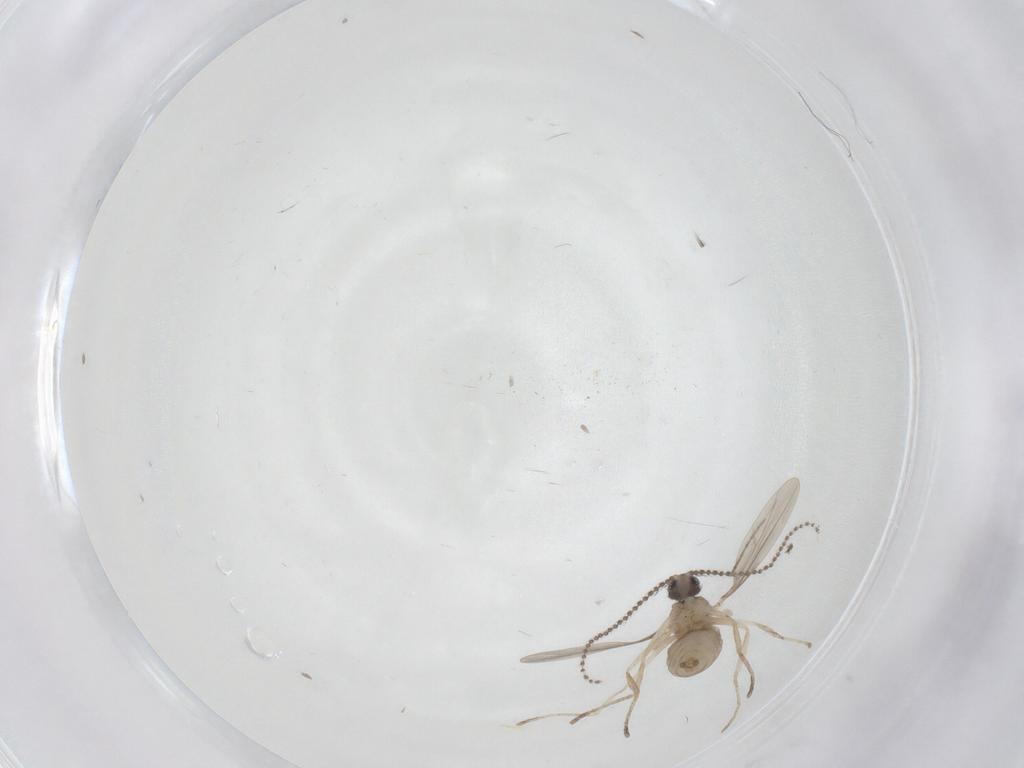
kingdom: Animalia
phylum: Arthropoda
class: Insecta
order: Diptera
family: Cecidomyiidae
